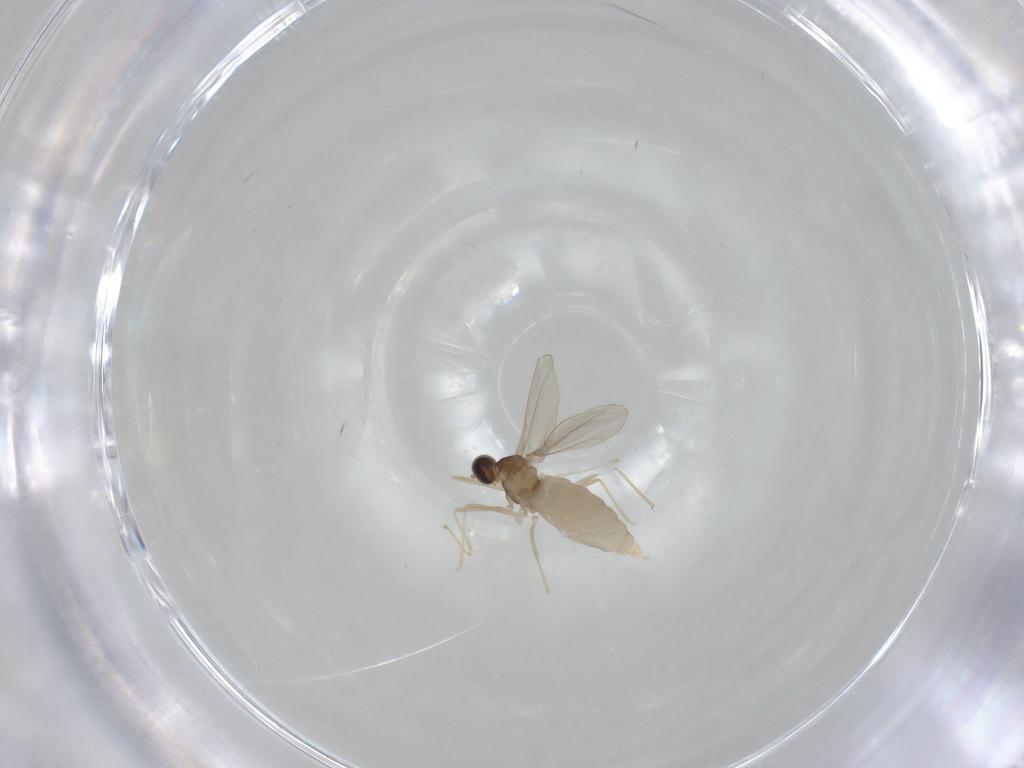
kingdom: Animalia
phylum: Arthropoda
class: Insecta
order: Diptera
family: Cecidomyiidae
